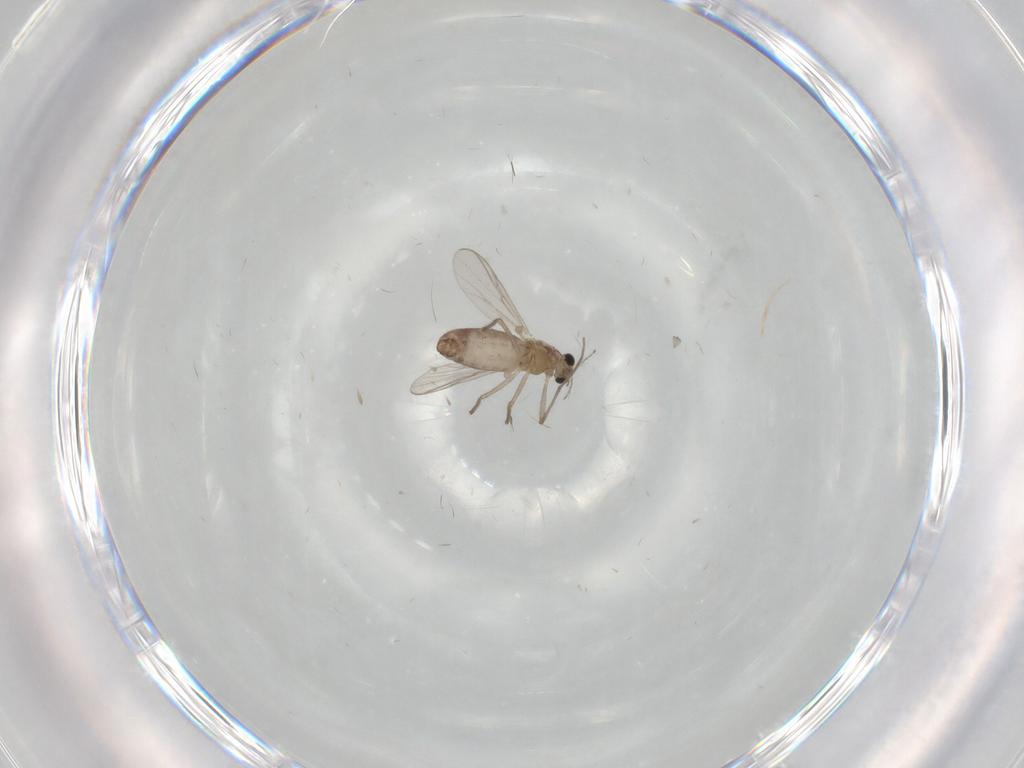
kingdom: Animalia
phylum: Arthropoda
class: Insecta
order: Diptera
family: Chironomidae
